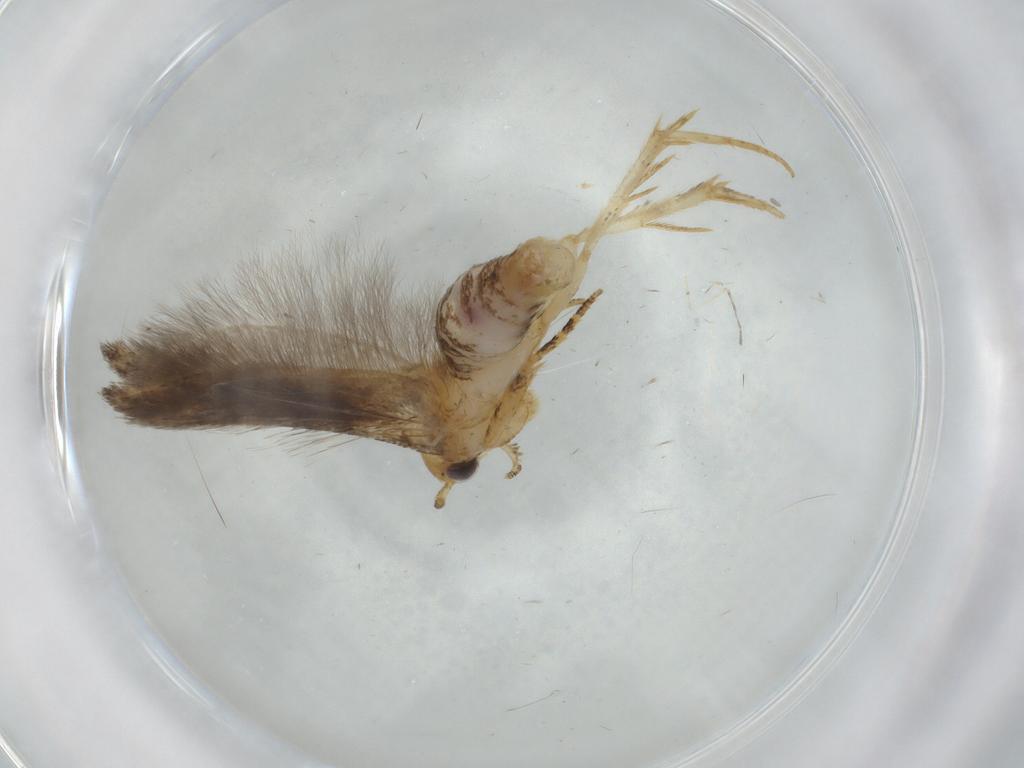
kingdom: Animalia
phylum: Arthropoda
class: Insecta
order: Lepidoptera
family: Gelechiidae
